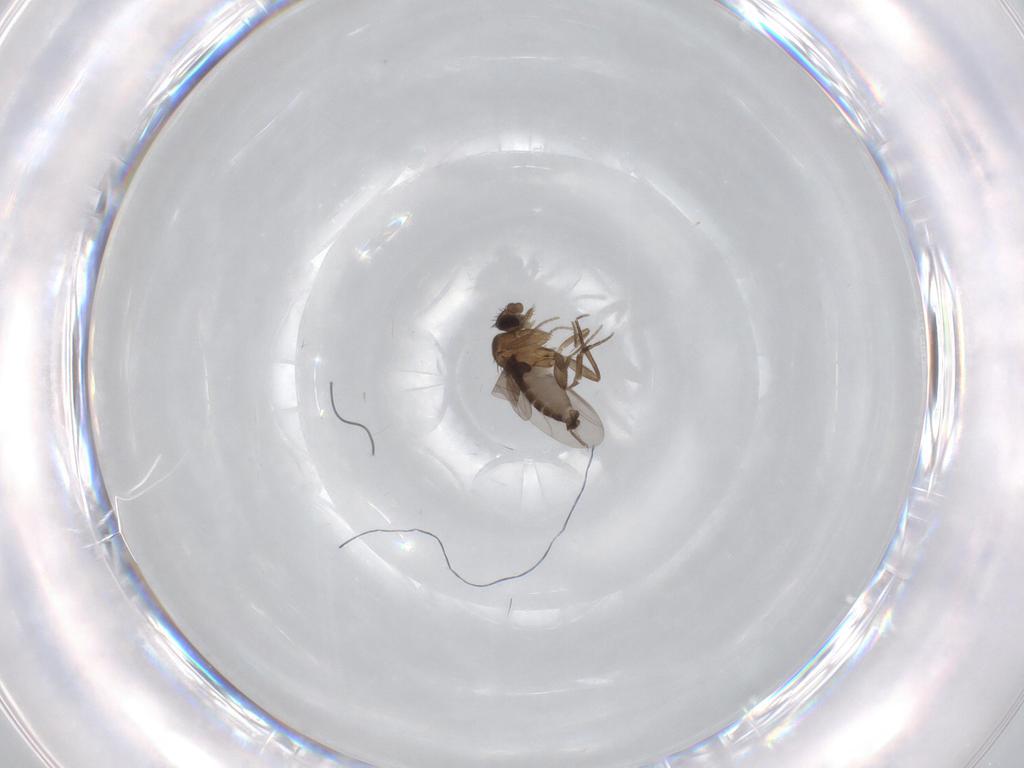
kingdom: Animalia
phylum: Arthropoda
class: Insecta
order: Diptera
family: Phoridae
